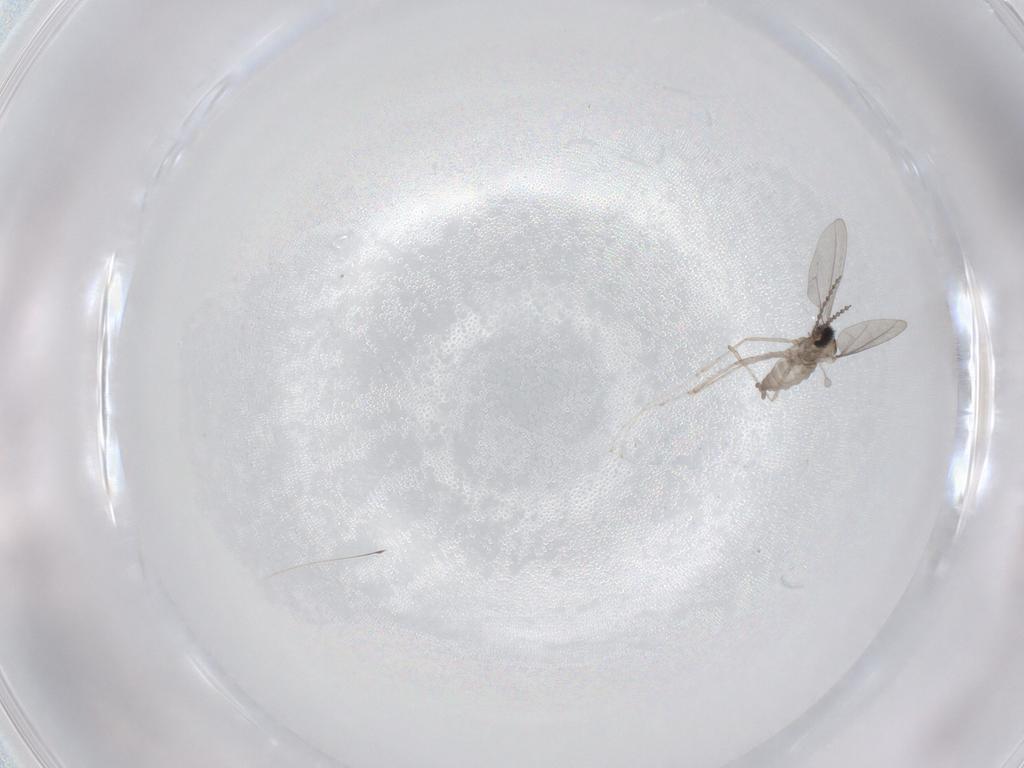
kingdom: Animalia
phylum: Arthropoda
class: Insecta
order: Diptera
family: Cecidomyiidae
